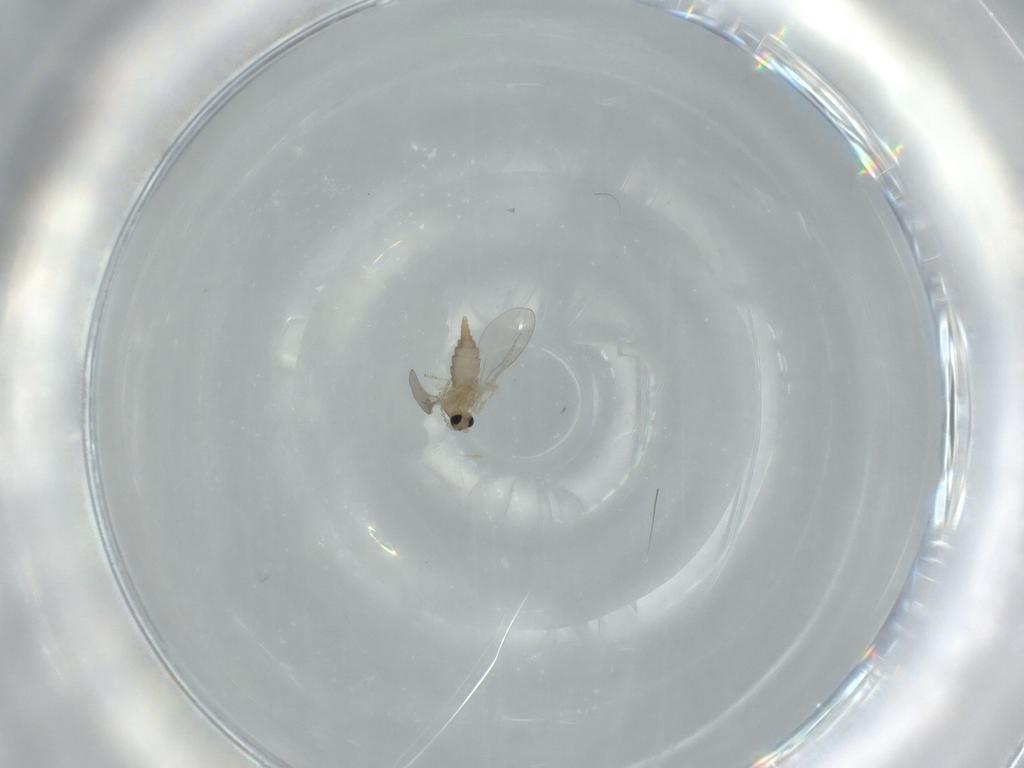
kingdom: Animalia
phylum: Arthropoda
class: Insecta
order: Diptera
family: Cecidomyiidae
